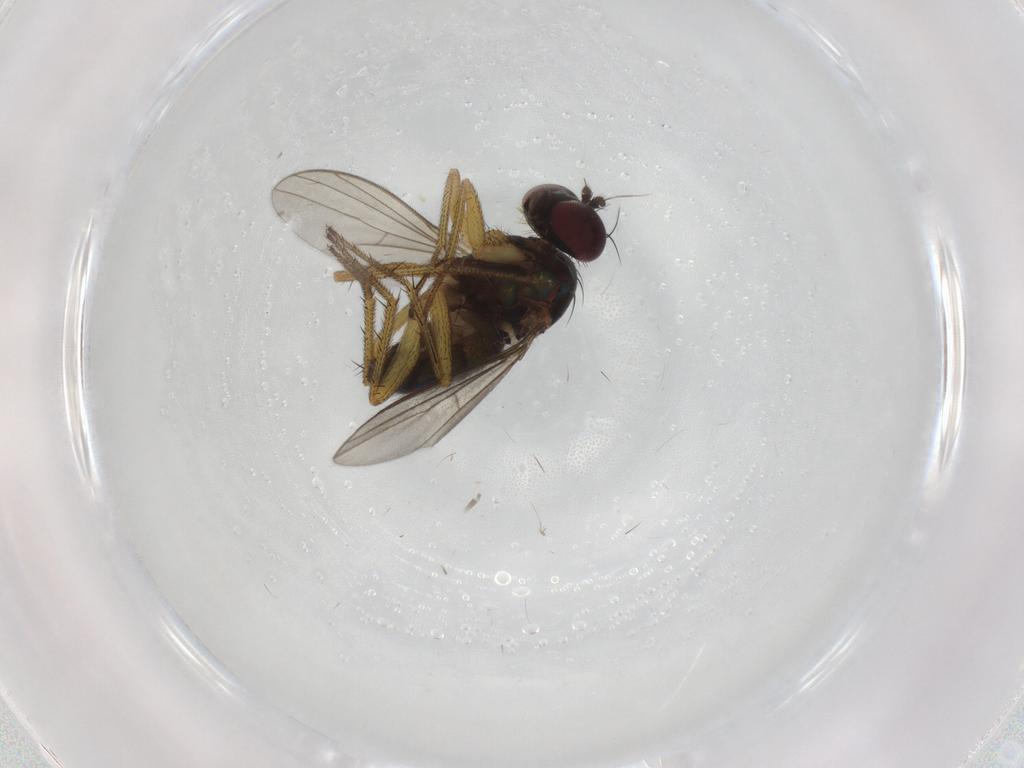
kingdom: Animalia
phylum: Arthropoda
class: Insecta
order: Diptera
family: Dolichopodidae
